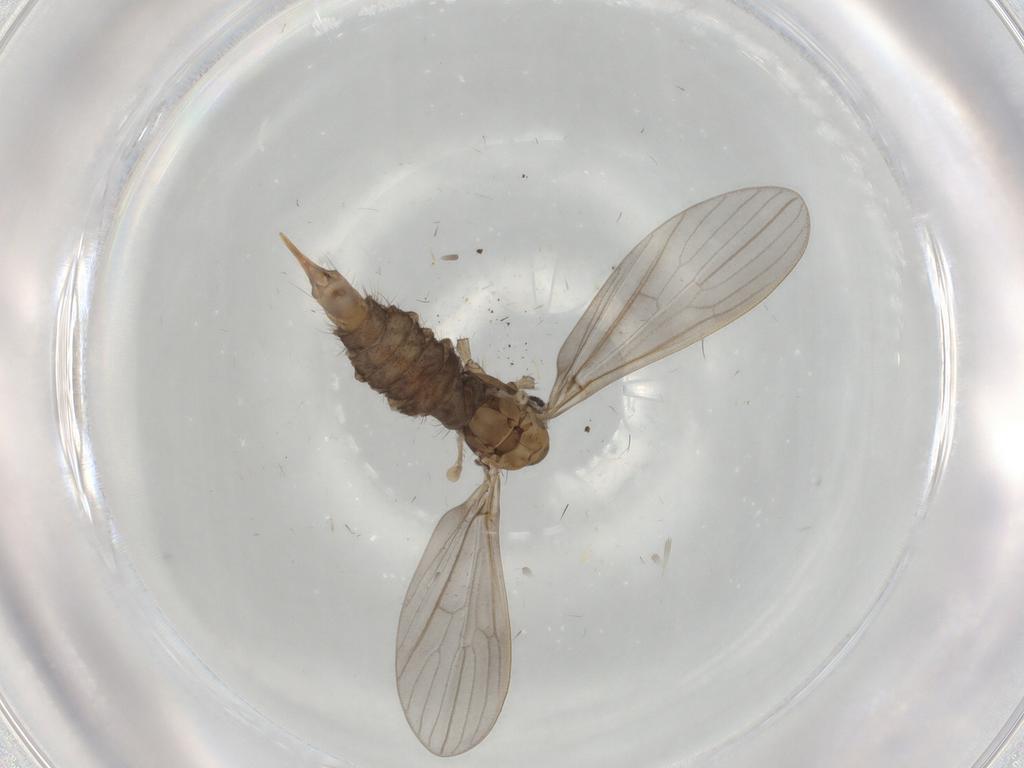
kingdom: Animalia
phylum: Arthropoda
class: Insecta
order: Diptera
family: Limoniidae
